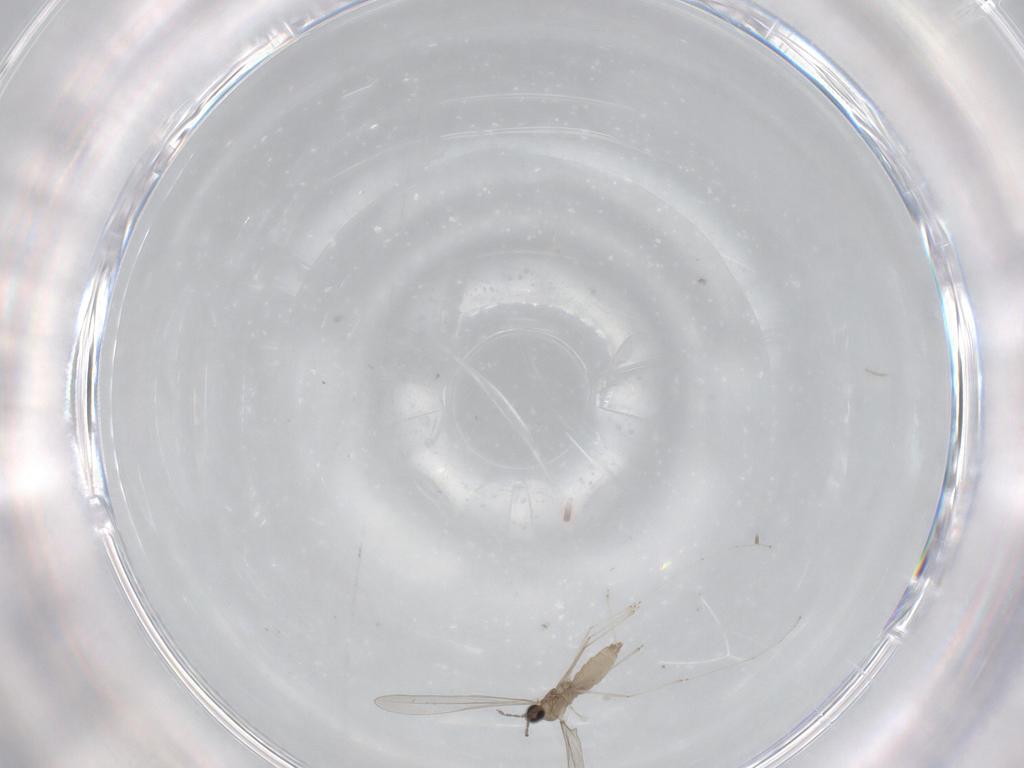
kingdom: Animalia
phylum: Arthropoda
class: Insecta
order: Diptera
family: Cecidomyiidae
